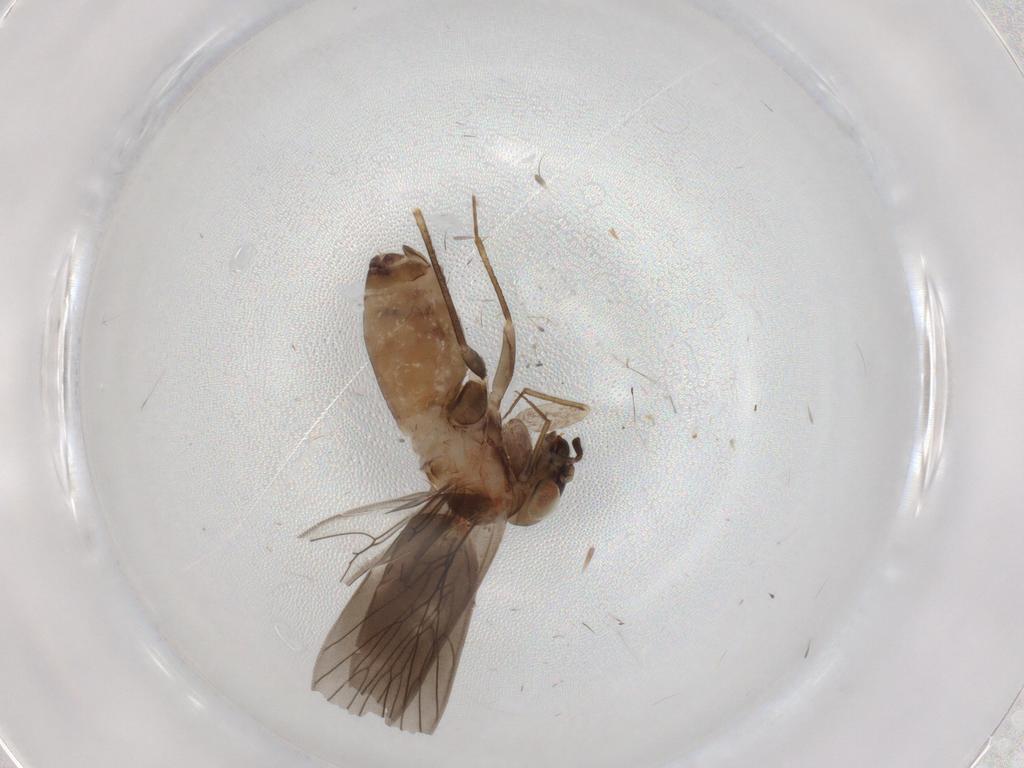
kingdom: Animalia
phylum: Arthropoda
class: Insecta
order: Psocodea
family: Lepidopsocidae
